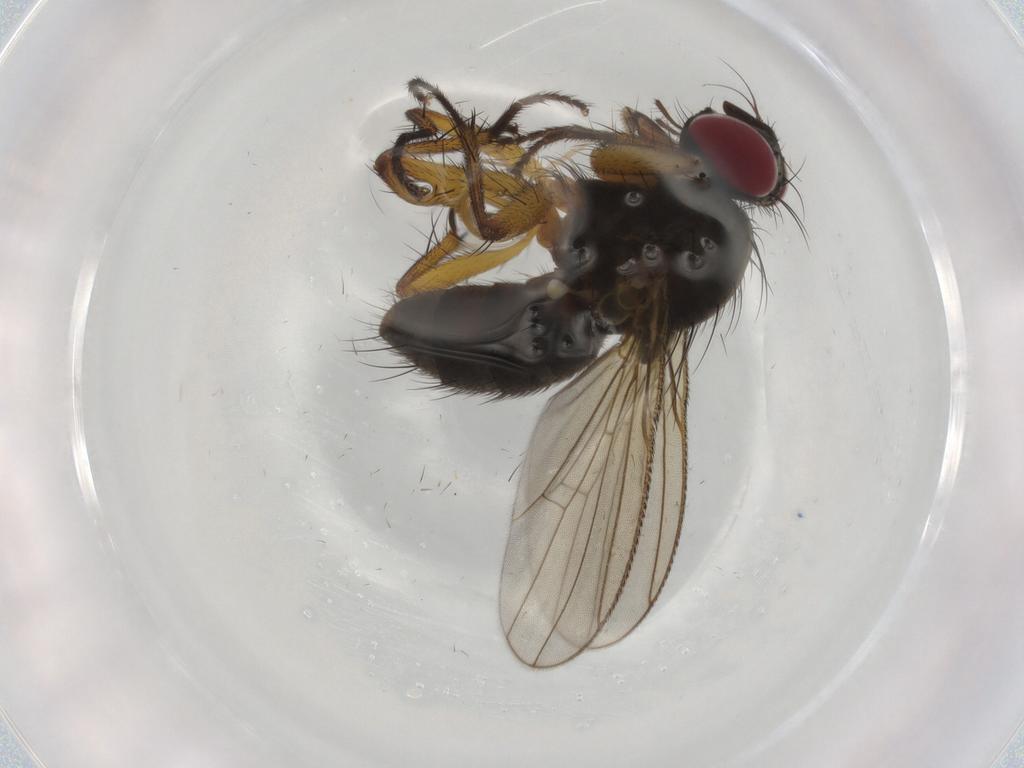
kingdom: Animalia
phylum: Arthropoda
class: Insecta
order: Diptera
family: Muscidae
